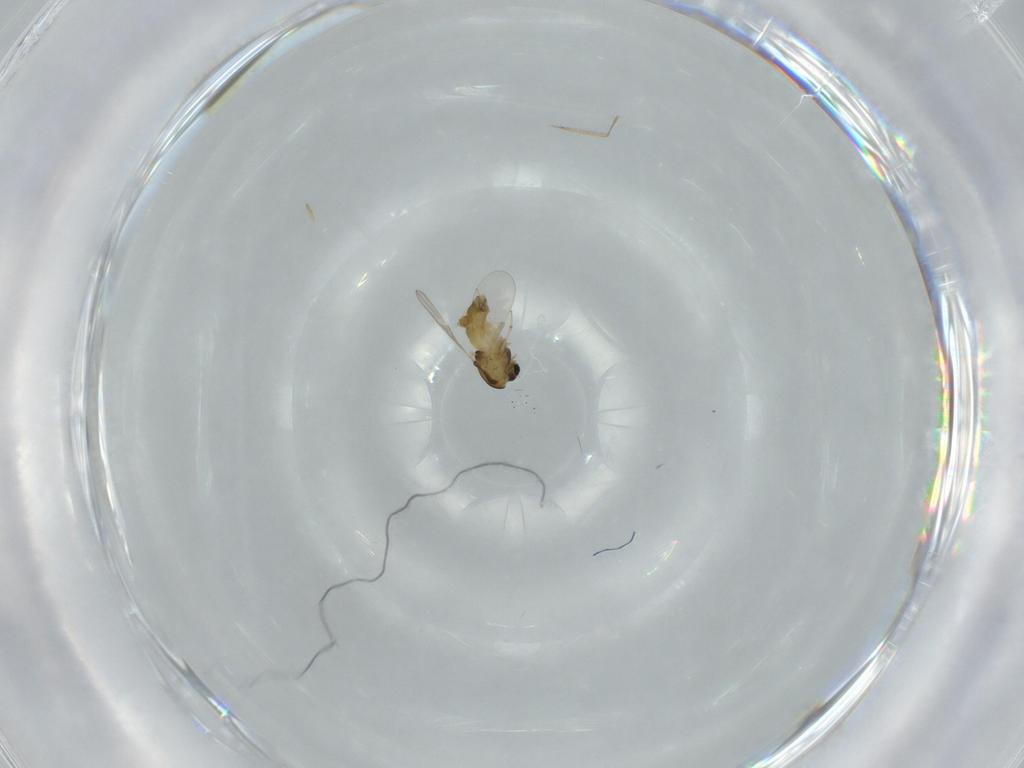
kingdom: Animalia
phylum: Arthropoda
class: Insecta
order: Diptera
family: Chironomidae
